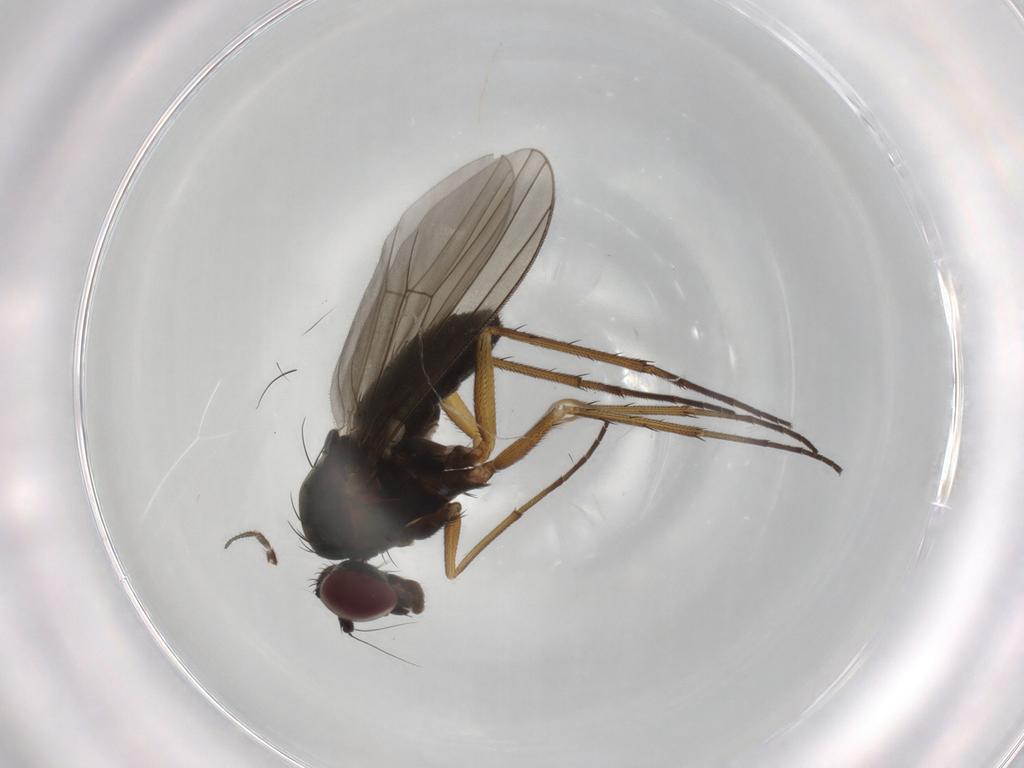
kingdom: Animalia
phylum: Arthropoda
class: Insecta
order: Diptera
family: Dolichopodidae
